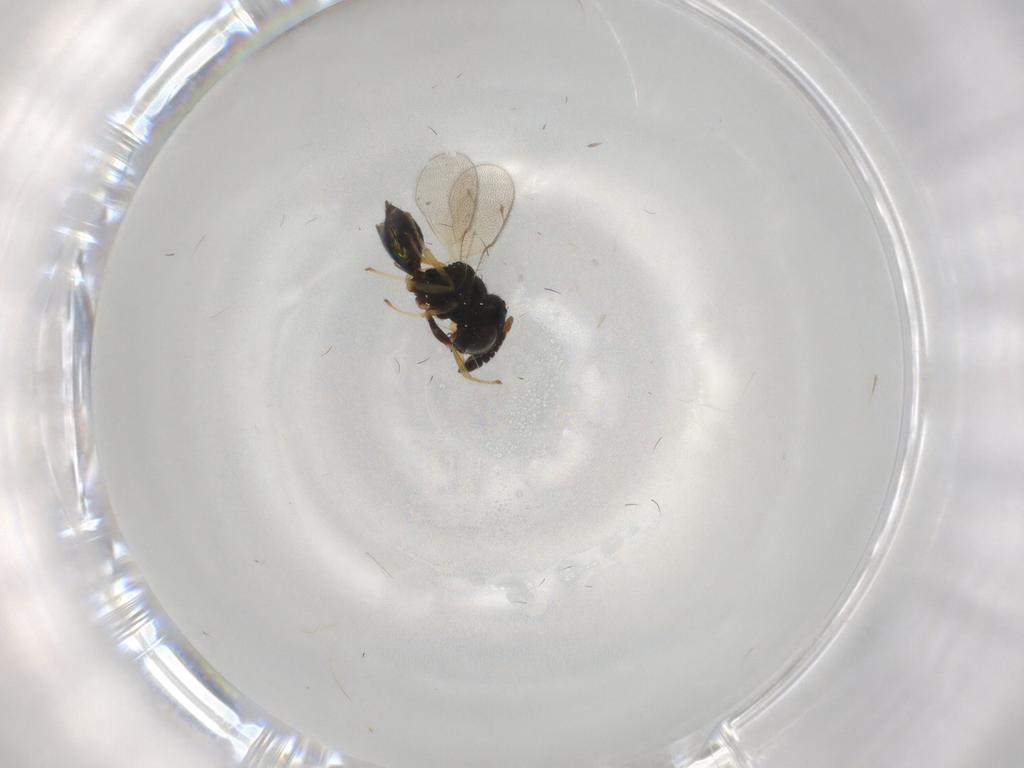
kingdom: Animalia
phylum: Arthropoda
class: Insecta
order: Hymenoptera
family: Pteromalidae
